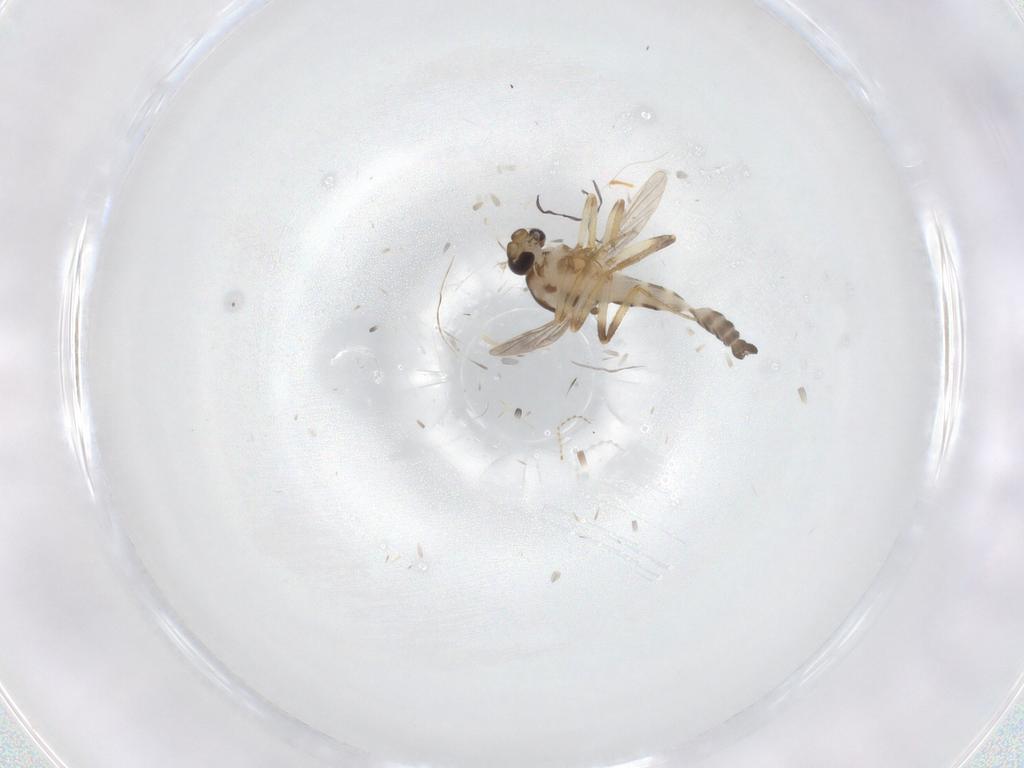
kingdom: Animalia
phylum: Arthropoda
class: Insecta
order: Diptera
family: Ceratopogonidae
